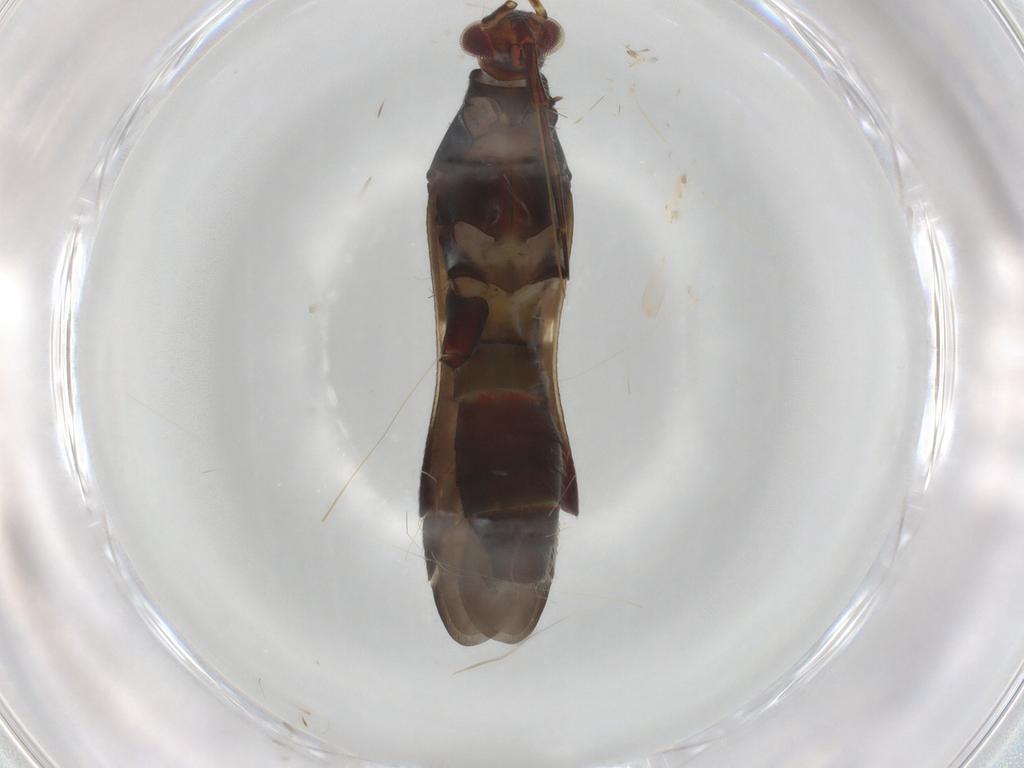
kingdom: Animalia
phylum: Arthropoda
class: Insecta
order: Hemiptera
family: Miridae
